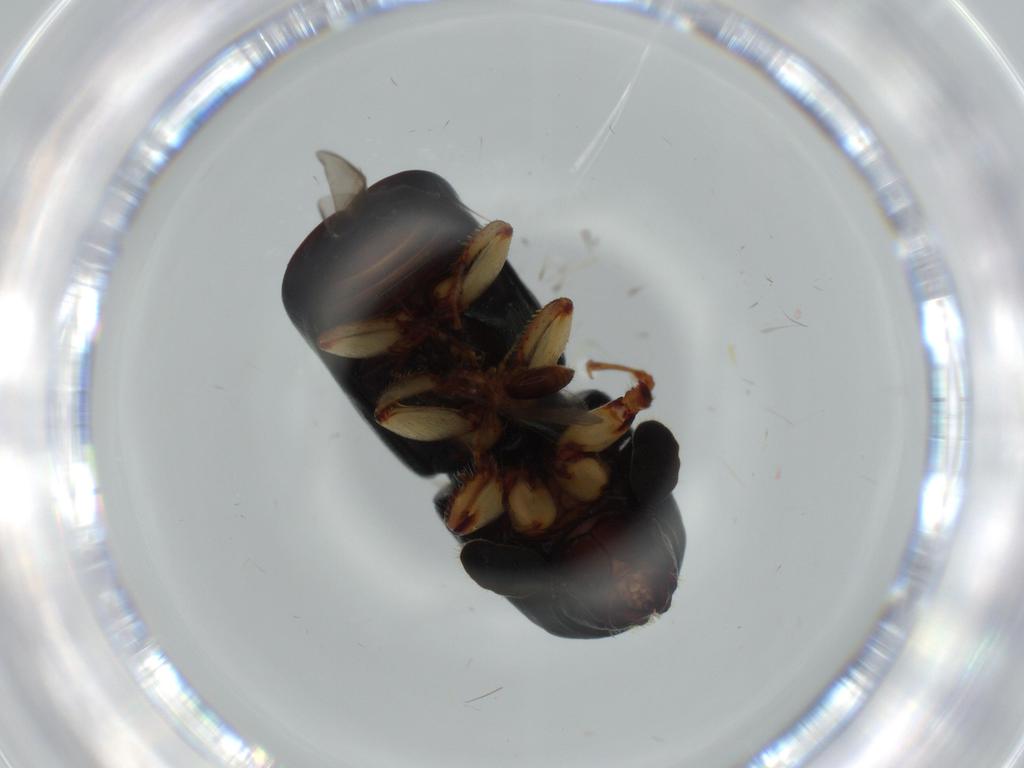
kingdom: Animalia
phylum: Arthropoda
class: Insecta
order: Coleoptera
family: Curculionidae
